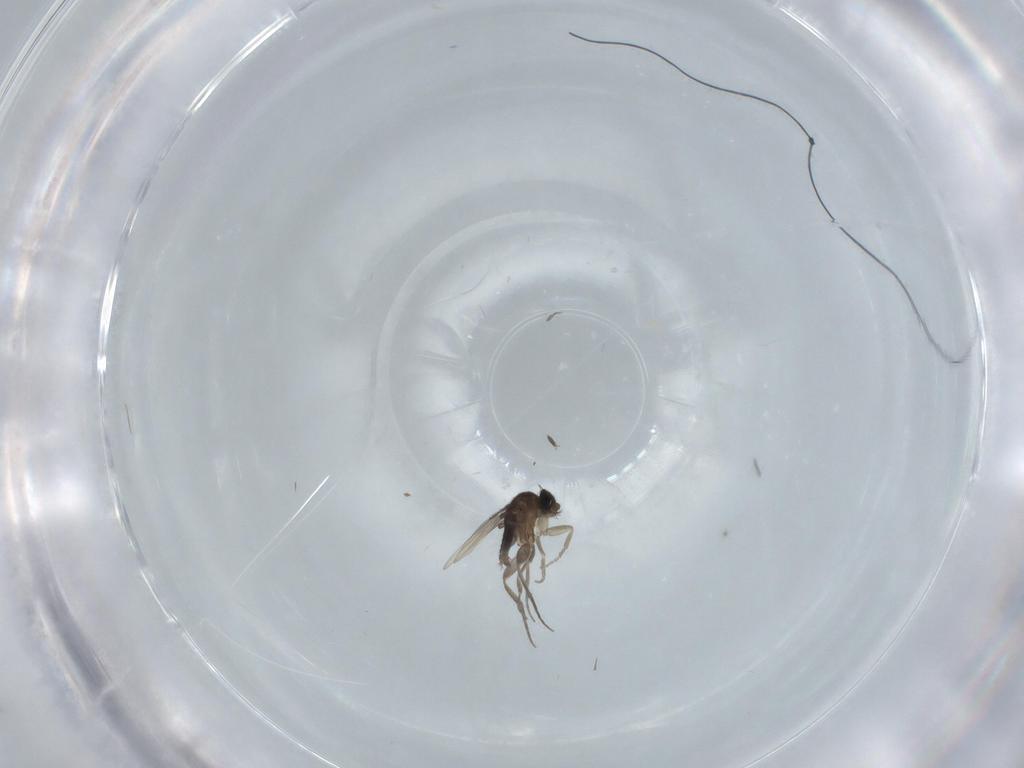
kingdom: Animalia
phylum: Arthropoda
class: Insecta
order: Diptera
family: Phoridae
